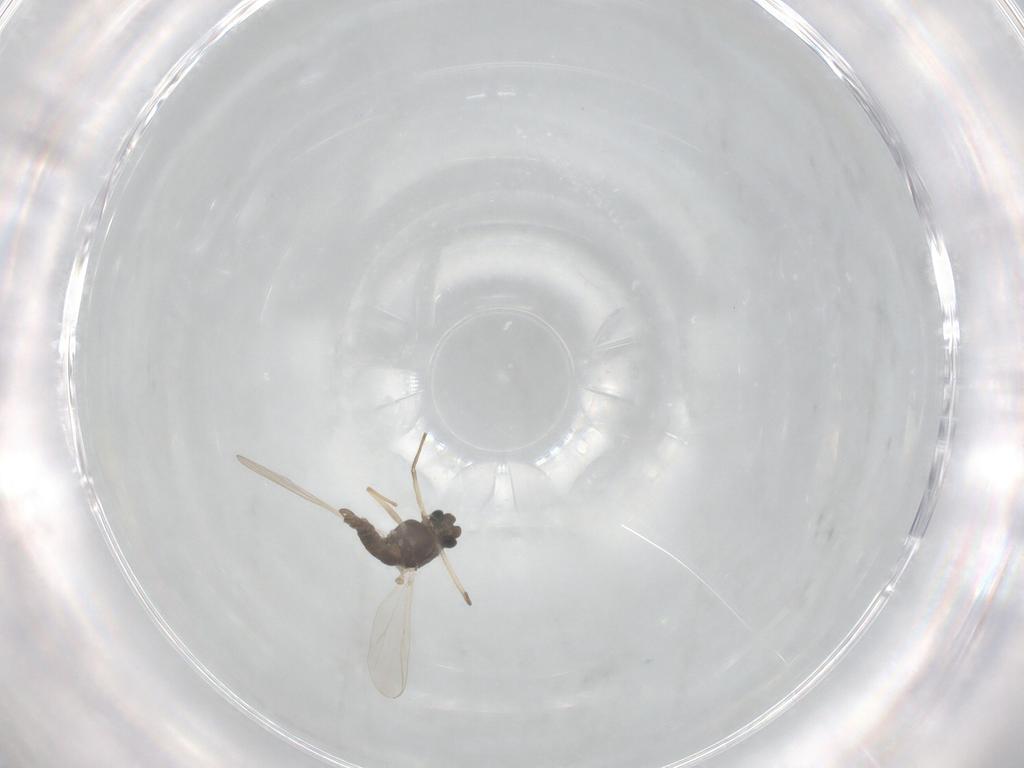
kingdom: Animalia
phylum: Arthropoda
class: Insecta
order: Diptera
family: Chironomidae
